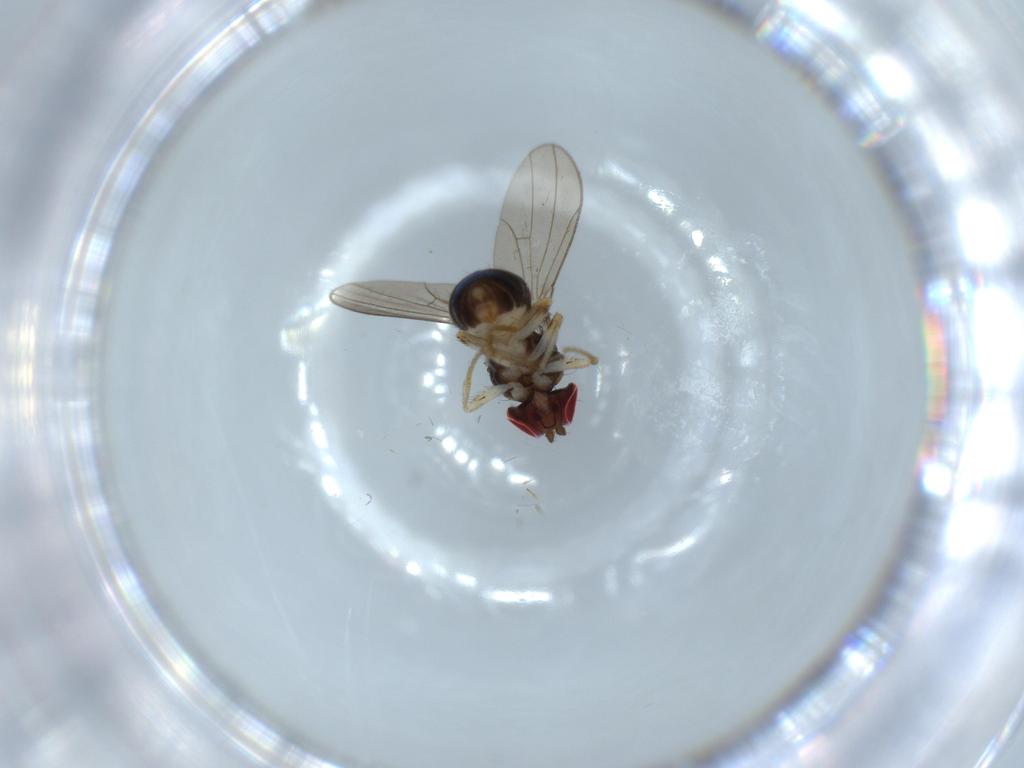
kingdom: Animalia
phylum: Arthropoda
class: Insecta
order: Diptera
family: Drosophilidae
